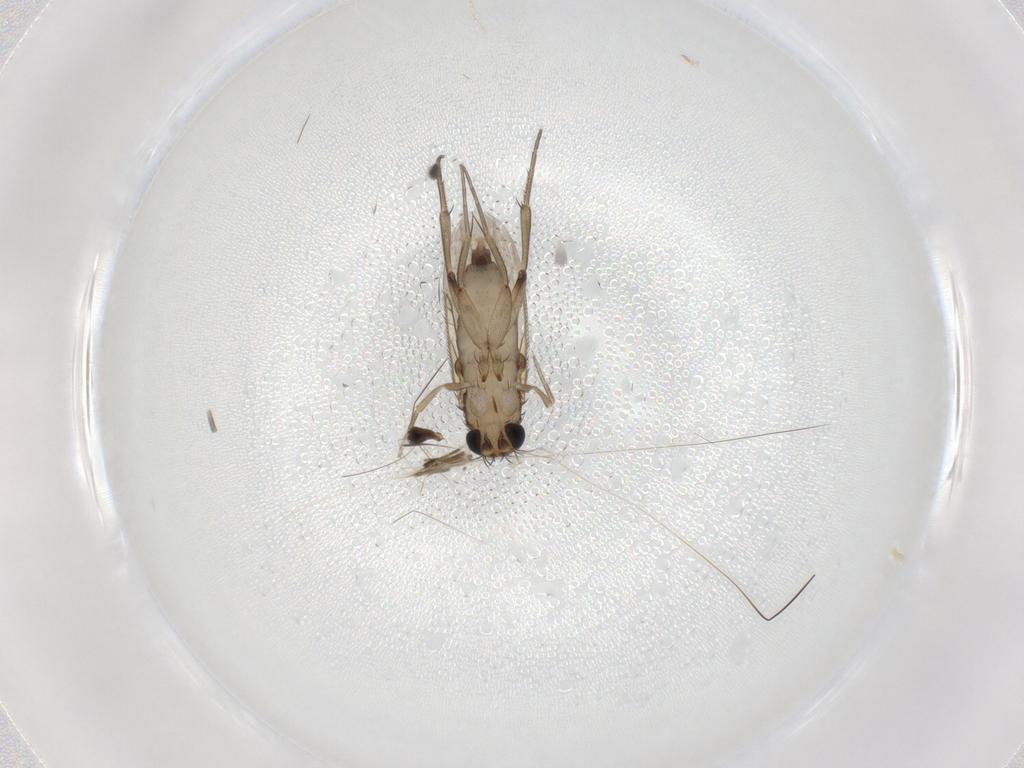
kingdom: Animalia
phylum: Arthropoda
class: Insecta
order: Diptera
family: Phoridae
